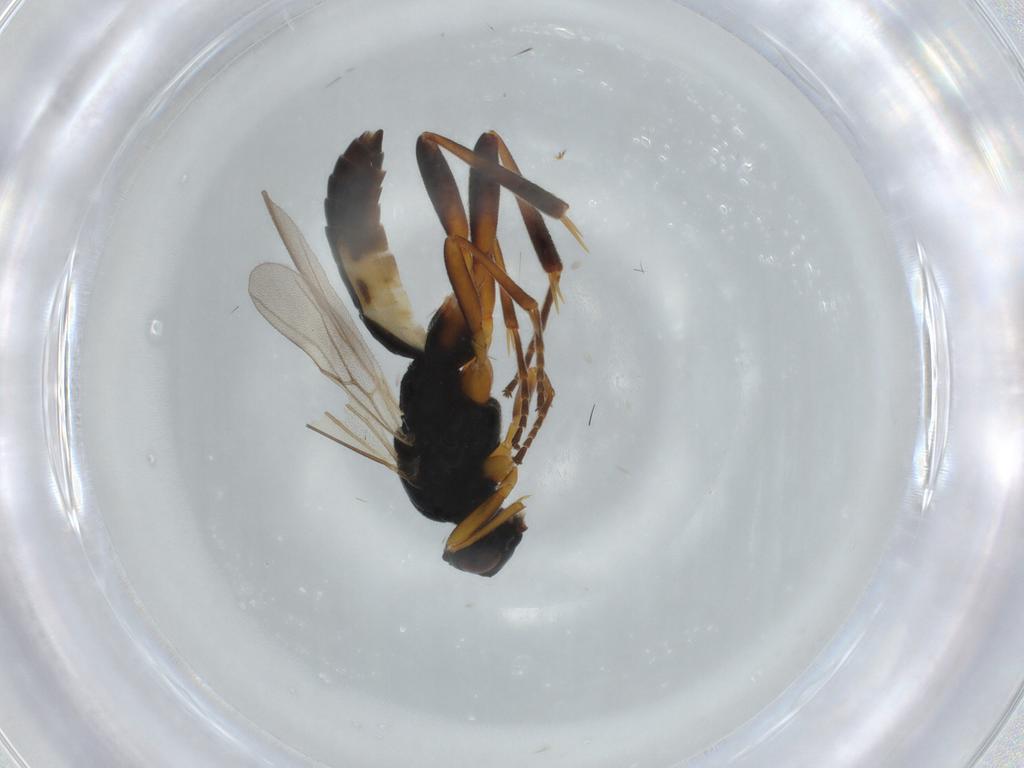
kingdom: Animalia
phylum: Arthropoda
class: Insecta
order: Hymenoptera
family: Braconidae
